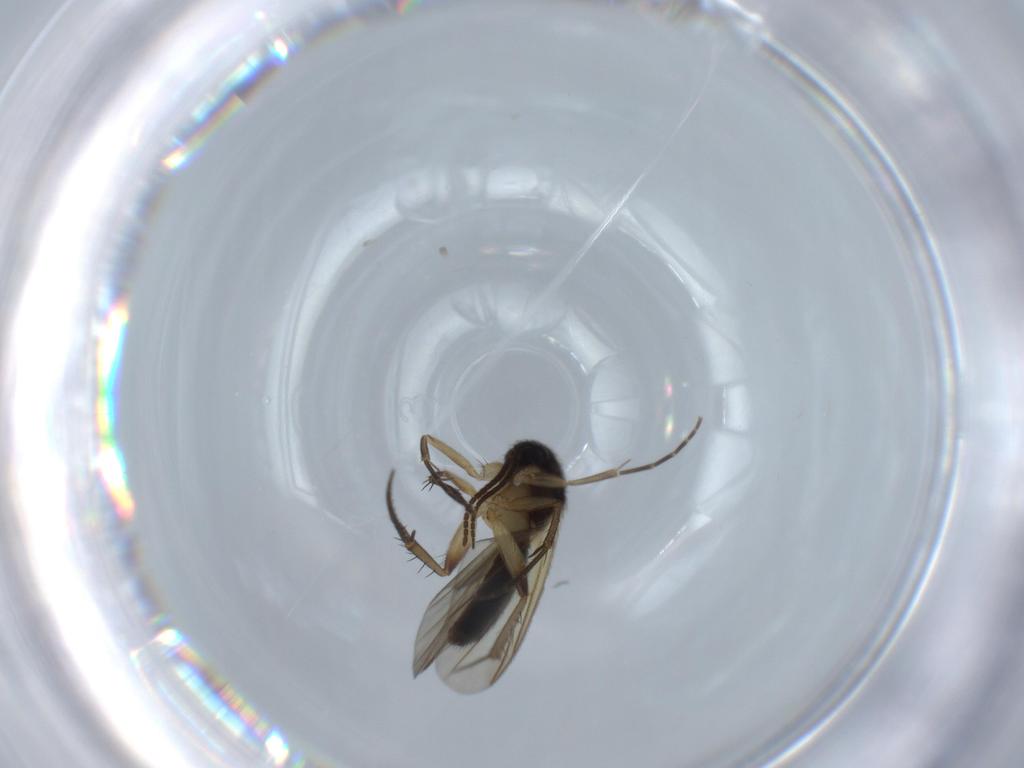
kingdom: Animalia
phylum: Arthropoda
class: Insecta
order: Diptera
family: Mycetophilidae
